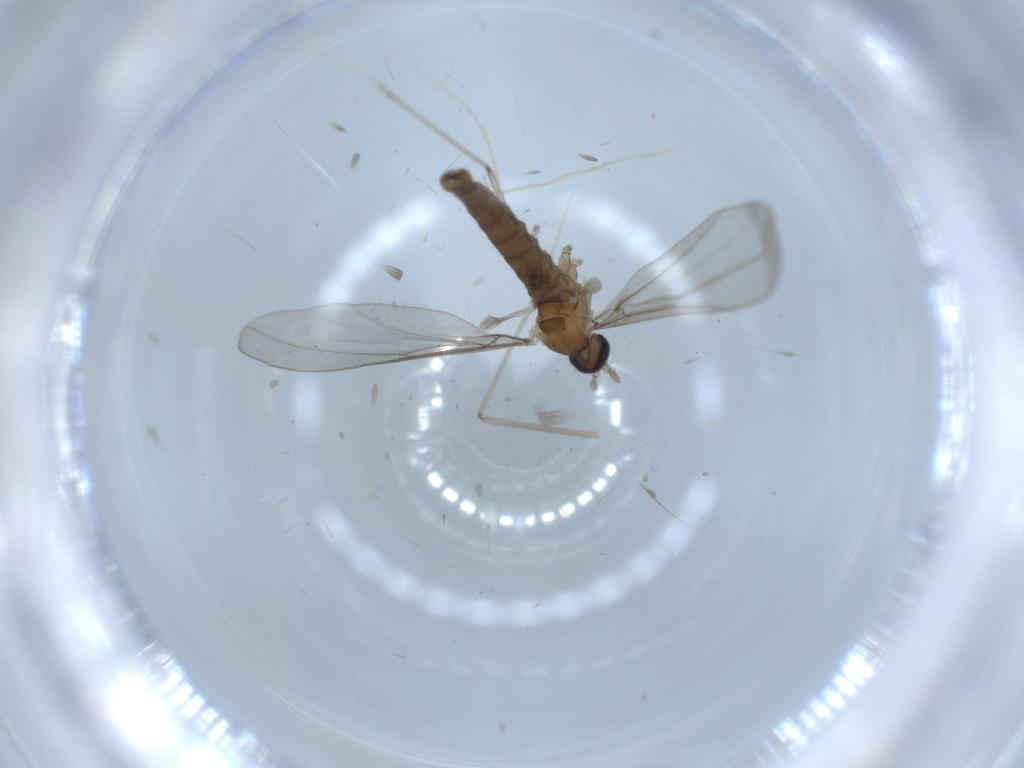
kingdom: Animalia
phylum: Arthropoda
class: Insecta
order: Diptera
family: Cecidomyiidae
